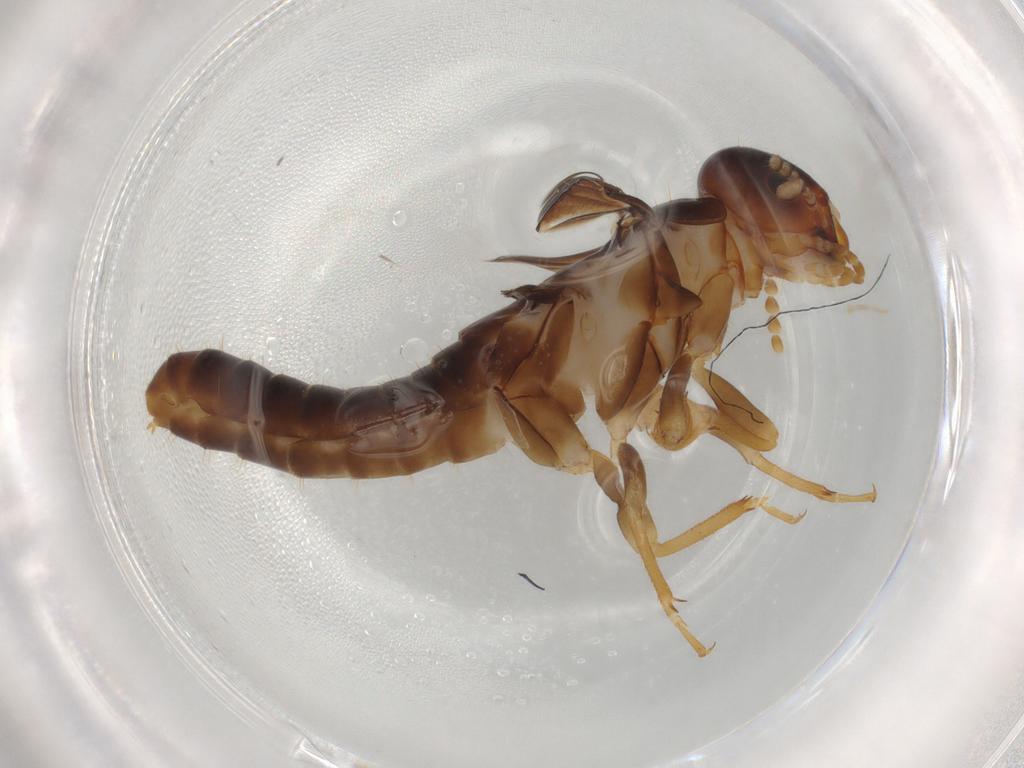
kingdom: Animalia
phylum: Arthropoda
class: Insecta
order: Blattodea
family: Kalotermitidae
